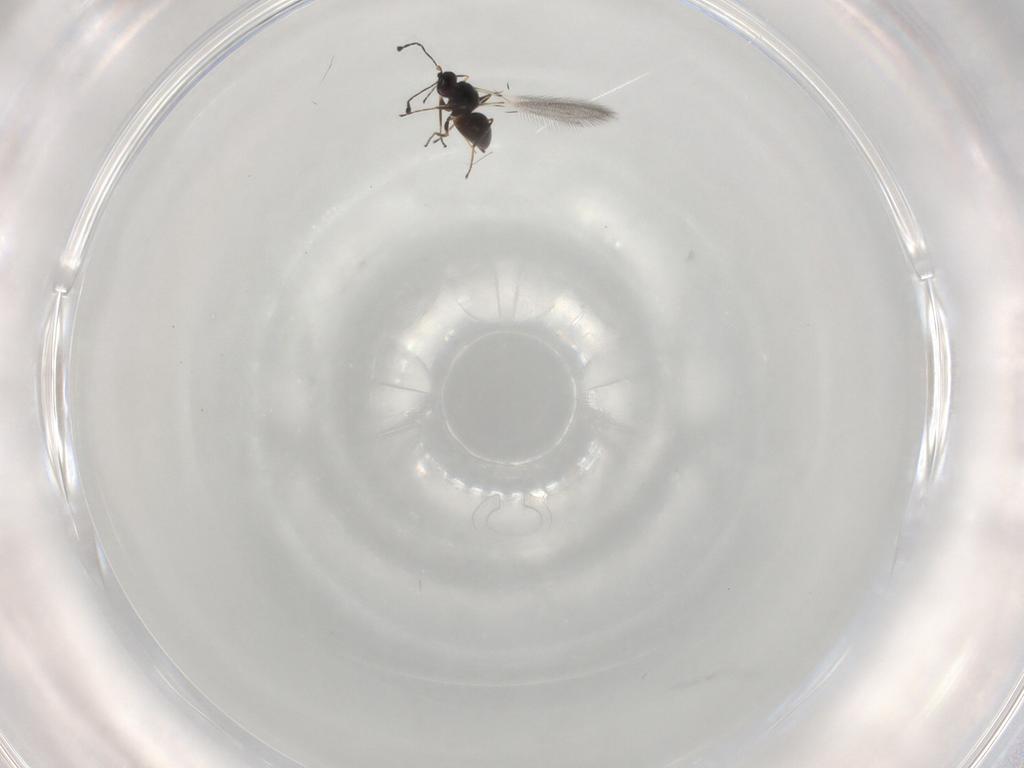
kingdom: Animalia
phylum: Arthropoda
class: Insecta
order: Hymenoptera
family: Mymaridae
